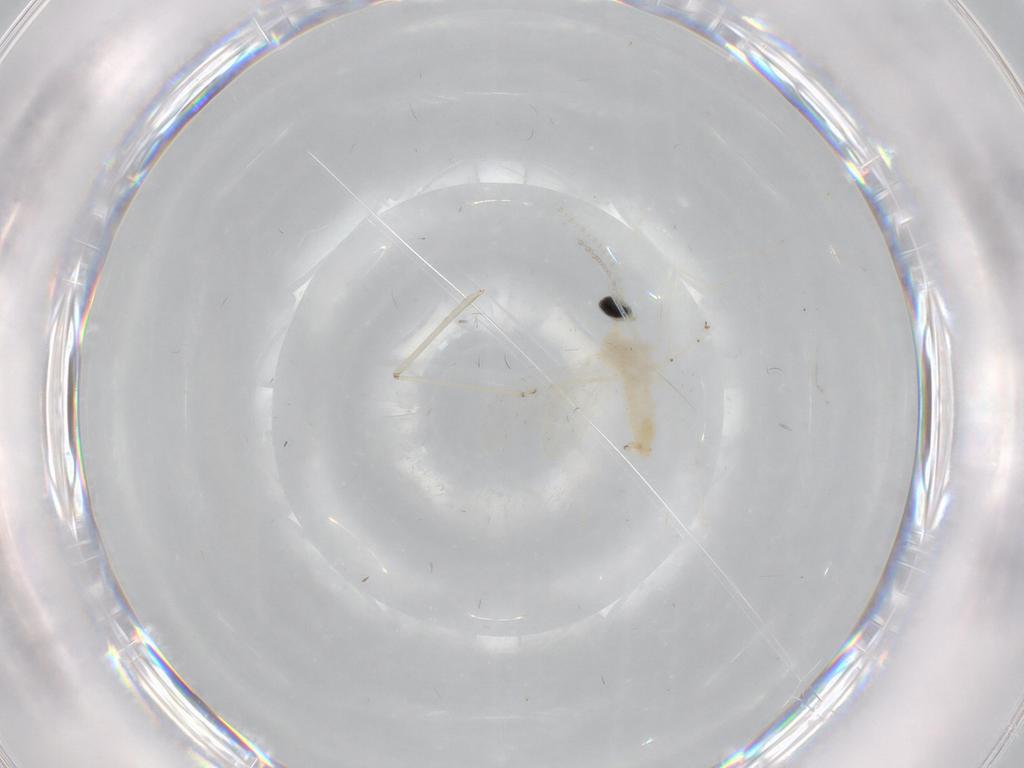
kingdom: Animalia
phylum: Arthropoda
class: Insecta
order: Diptera
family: Cecidomyiidae
